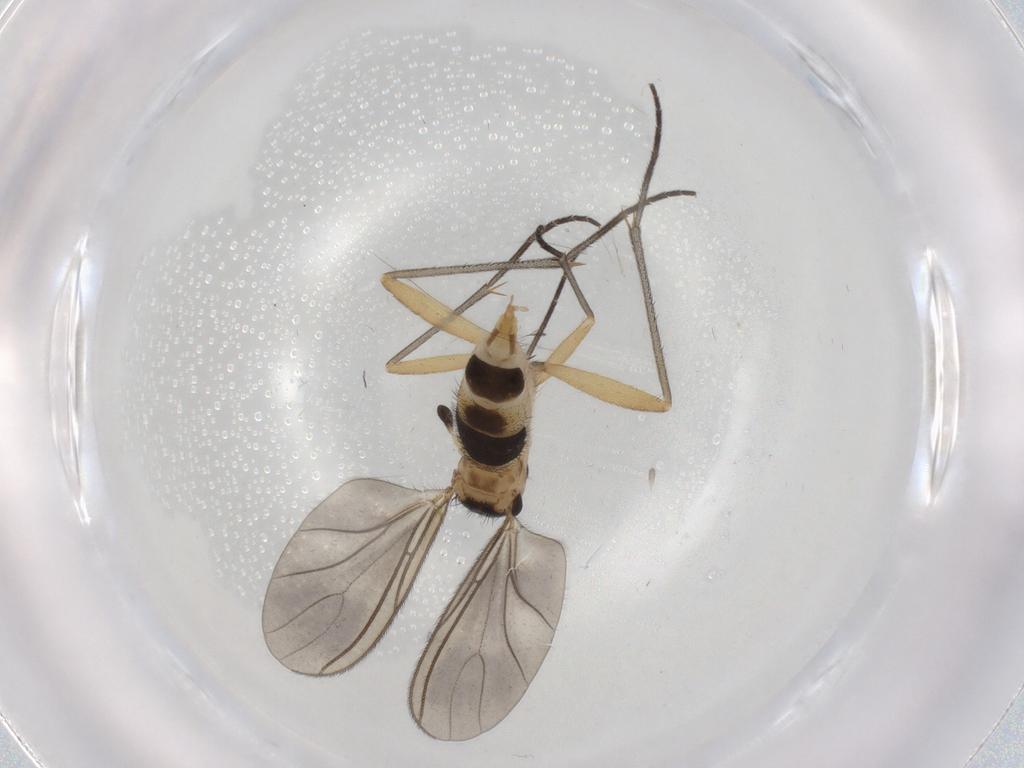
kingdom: Animalia
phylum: Arthropoda
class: Insecta
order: Diptera
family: Sciaridae
